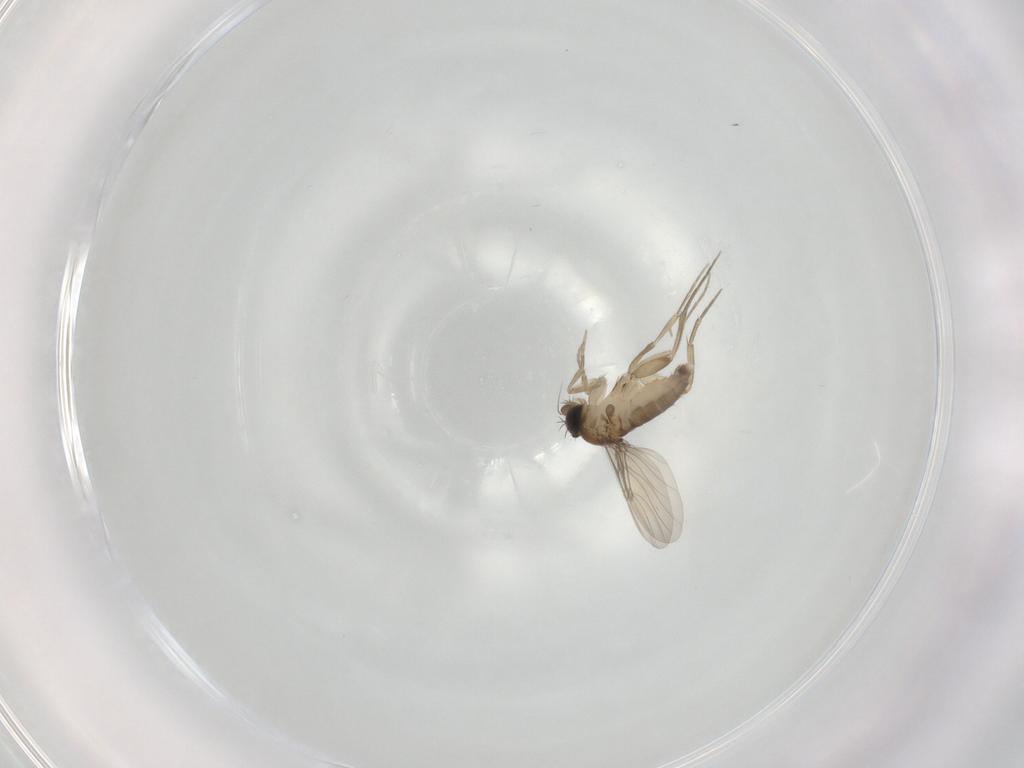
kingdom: Animalia
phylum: Arthropoda
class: Insecta
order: Diptera
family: Phoridae
